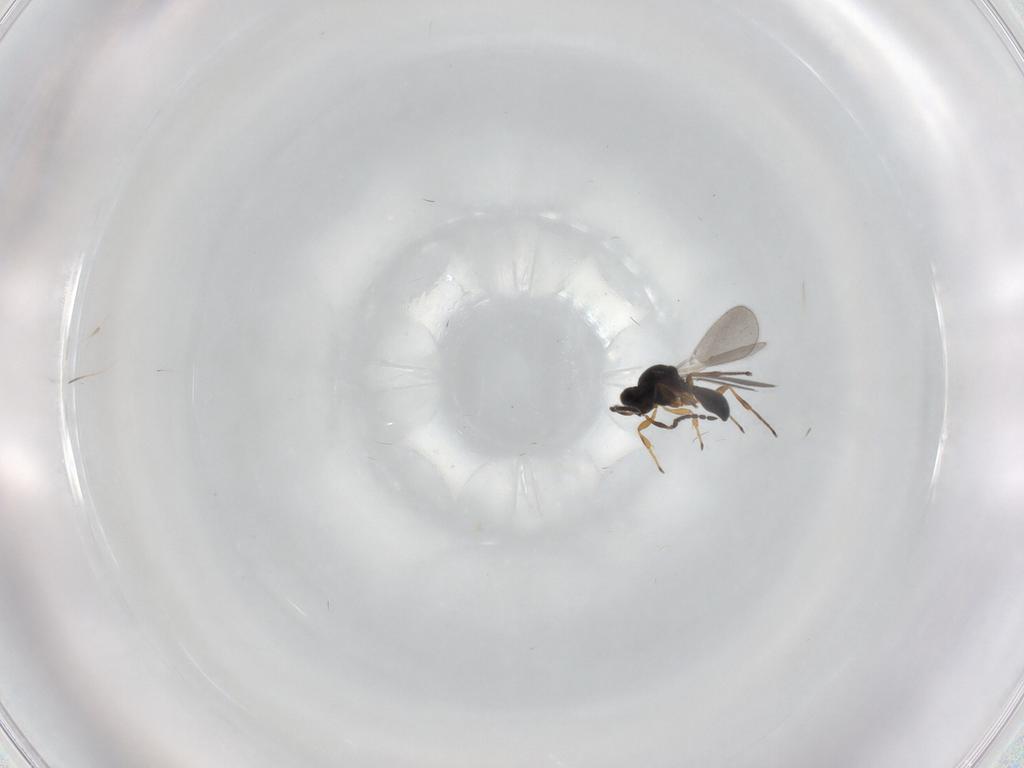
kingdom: Animalia
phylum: Arthropoda
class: Insecta
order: Hymenoptera
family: Platygastridae
